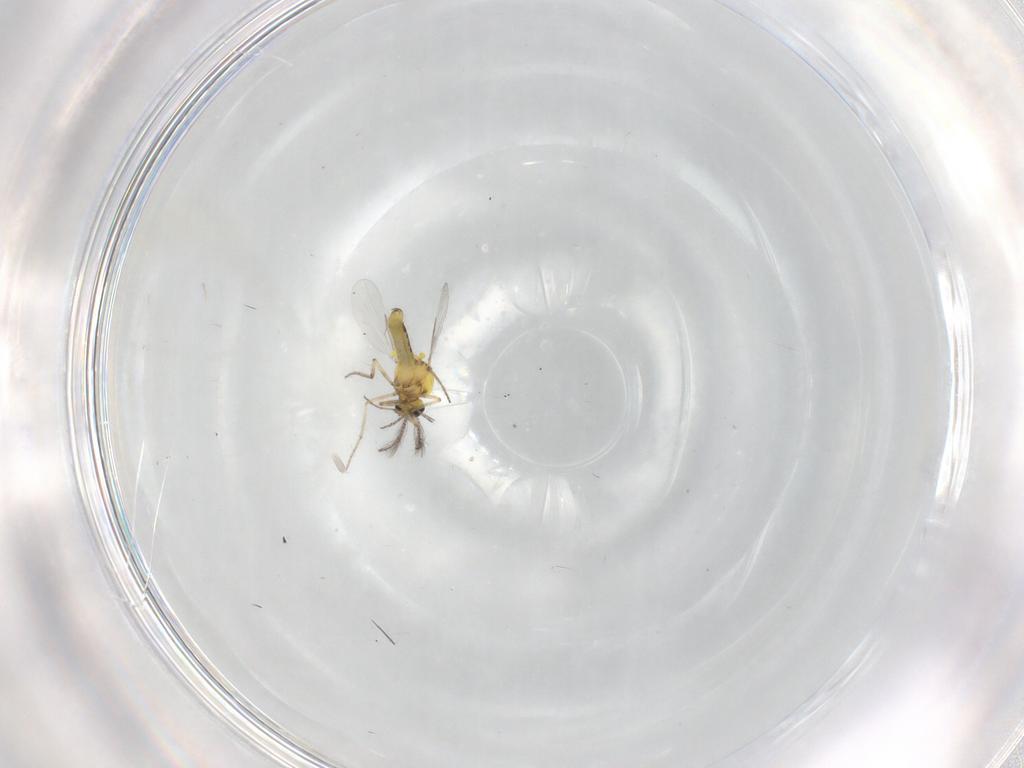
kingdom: Animalia
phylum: Arthropoda
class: Insecta
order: Diptera
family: Ceratopogonidae
